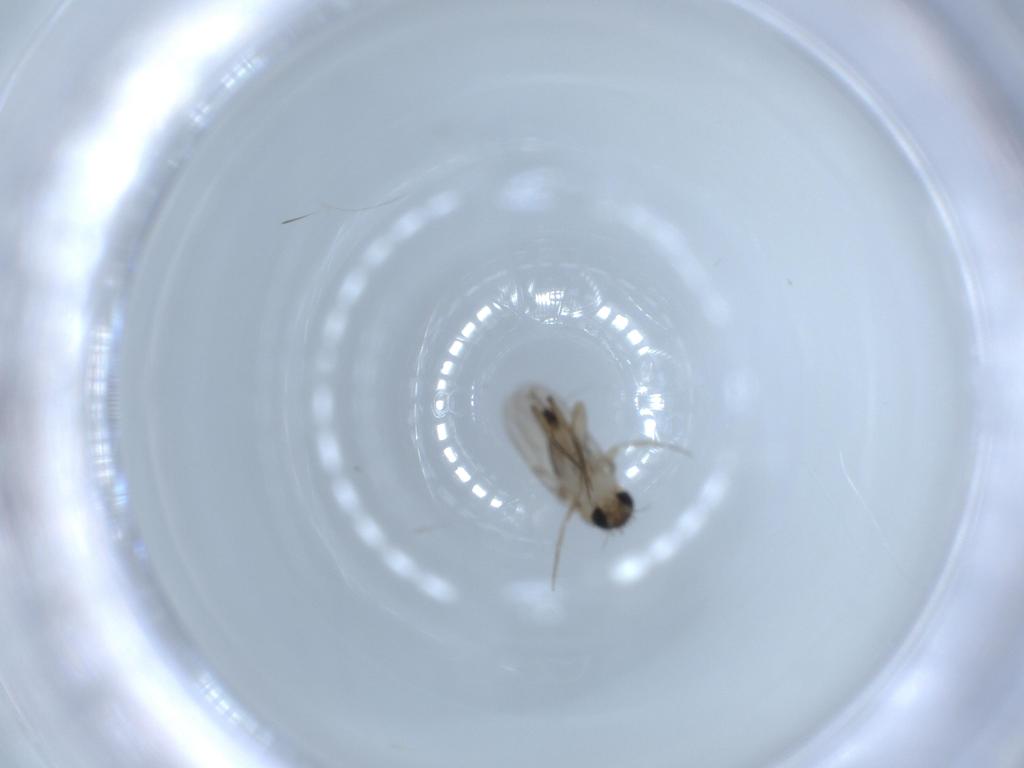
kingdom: Animalia
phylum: Arthropoda
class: Insecta
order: Diptera
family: Phoridae
